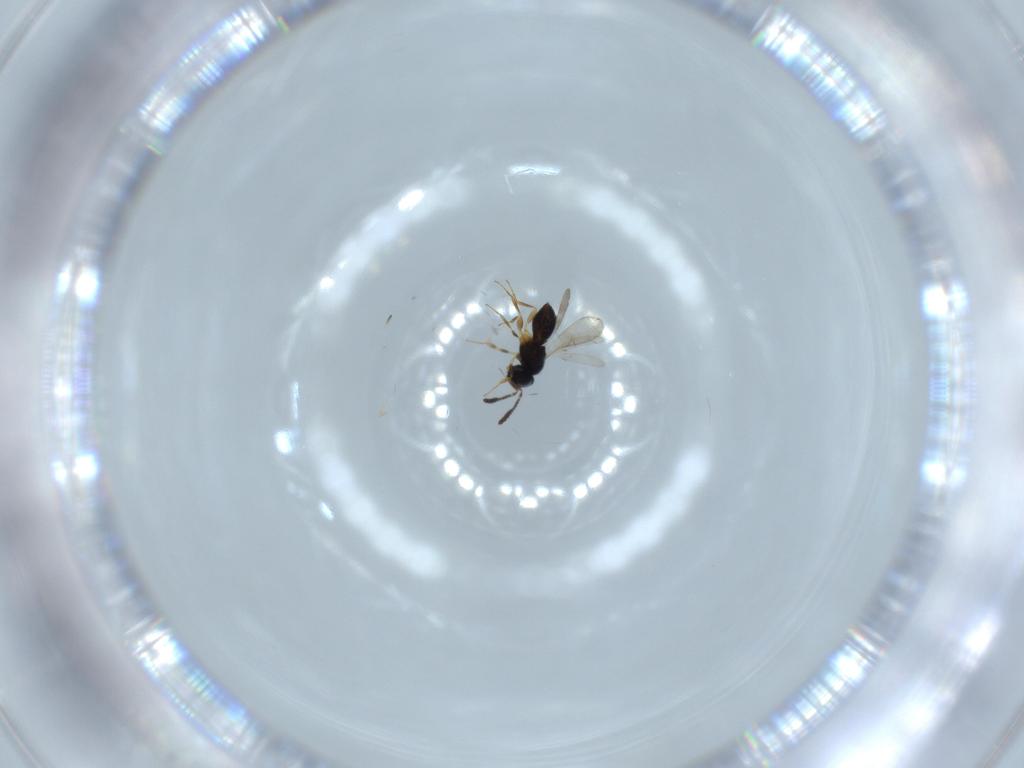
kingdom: Animalia
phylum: Arthropoda
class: Insecta
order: Hymenoptera
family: Scelionidae
